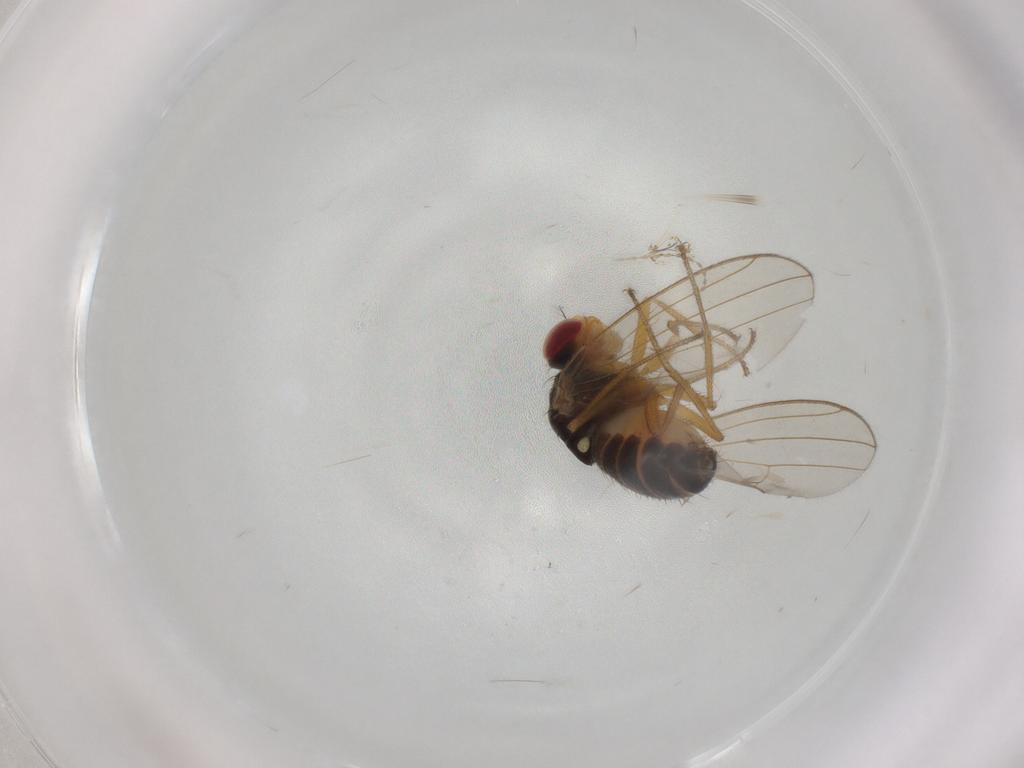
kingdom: Animalia
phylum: Arthropoda
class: Insecta
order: Diptera
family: Drosophilidae
